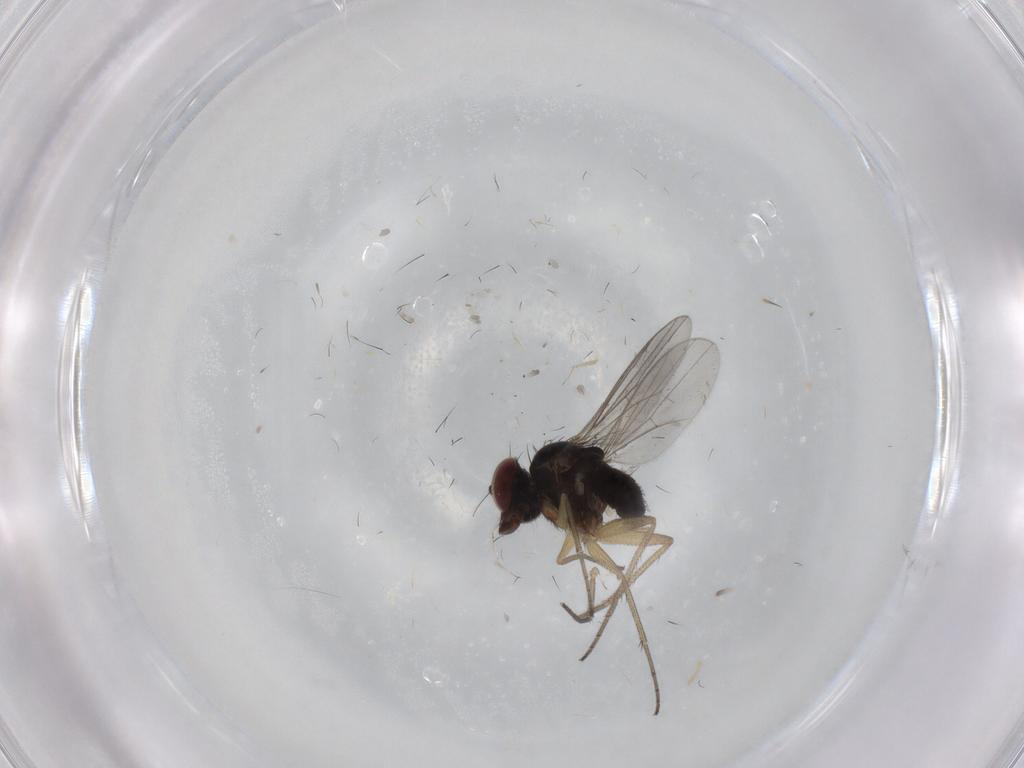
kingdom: Animalia
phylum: Arthropoda
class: Insecta
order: Diptera
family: Dolichopodidae
